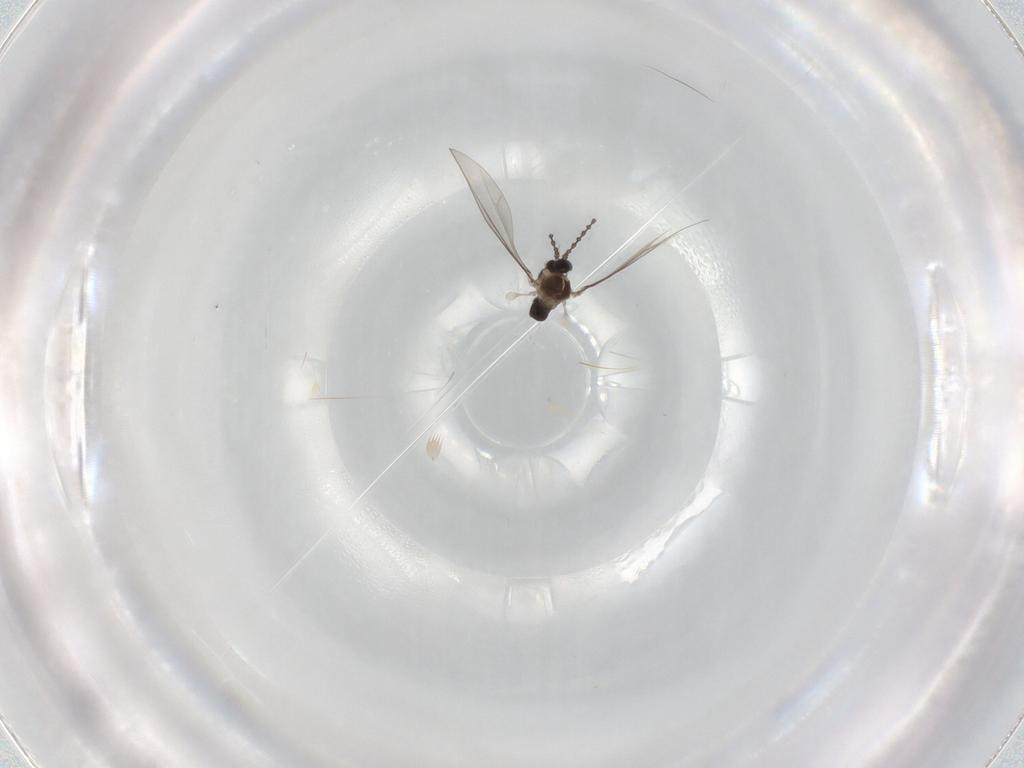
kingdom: Animalia
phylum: Arthropoda
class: Insecta
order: Diptera
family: Cecidomyiidae
